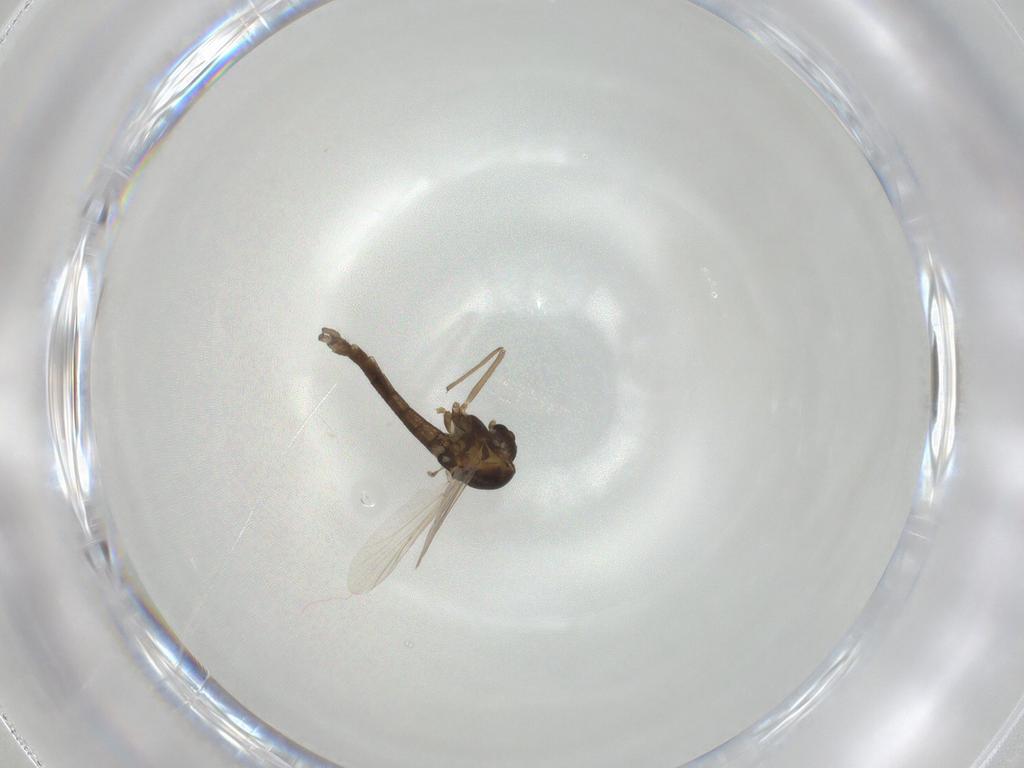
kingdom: Animalia
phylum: Arthropoda
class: Insecta
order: Diptera
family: Chironomidae
